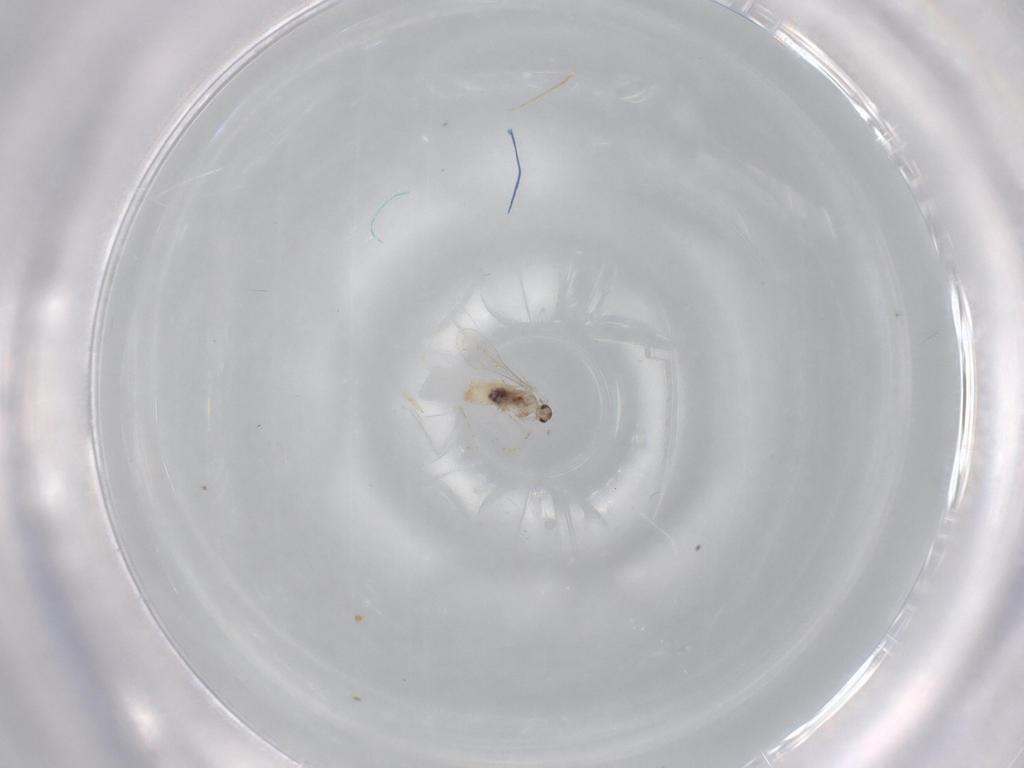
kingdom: Animalia
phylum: Arthropoda
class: Insecta
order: Diptera
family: Cecidomyiidae
